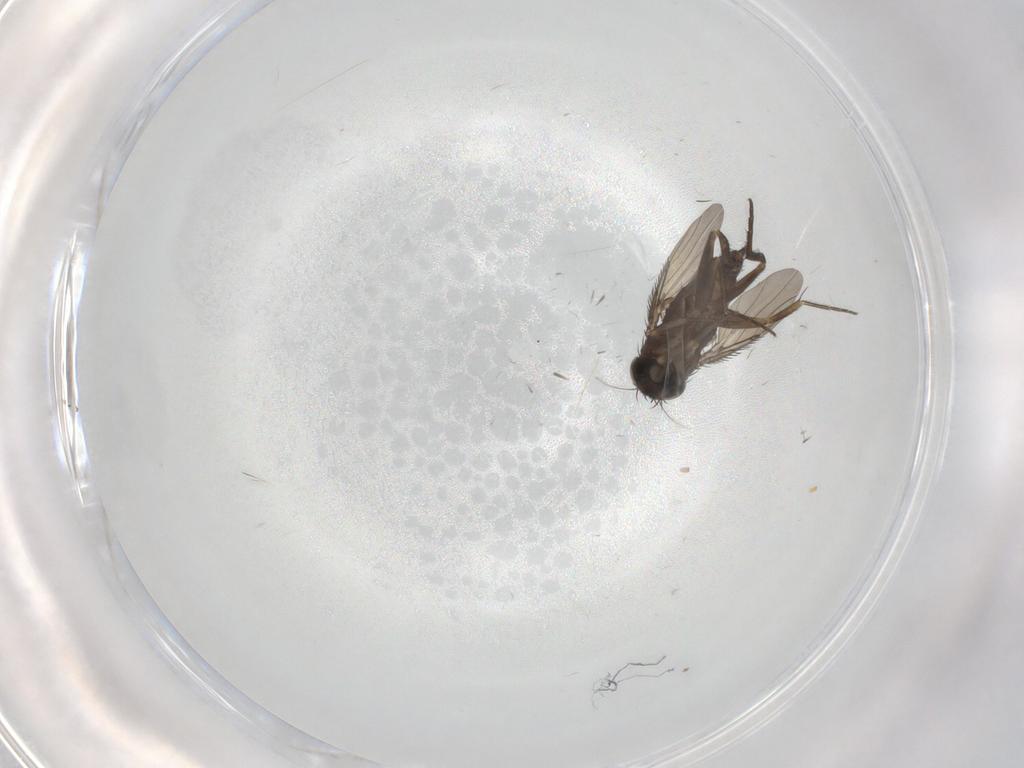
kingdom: Animalia
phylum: Arthropoda
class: Insecta
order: Diptera
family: Phoridae
